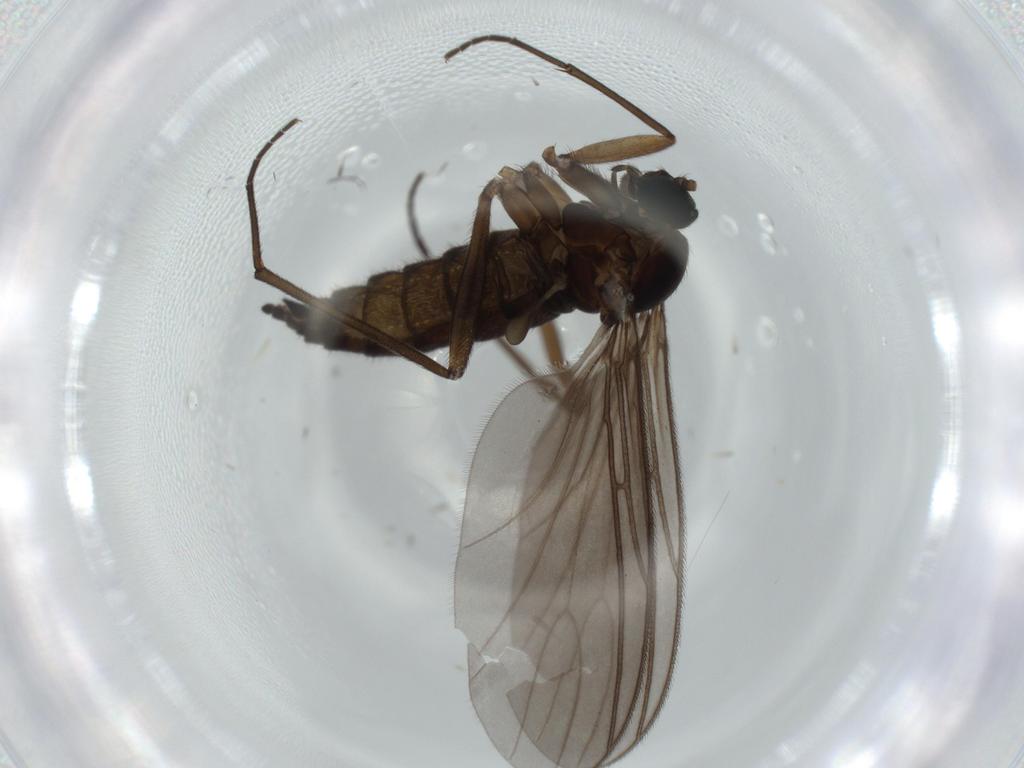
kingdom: Animalia
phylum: Arthropoda
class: Insecta
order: Diptera
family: Sciaridae
